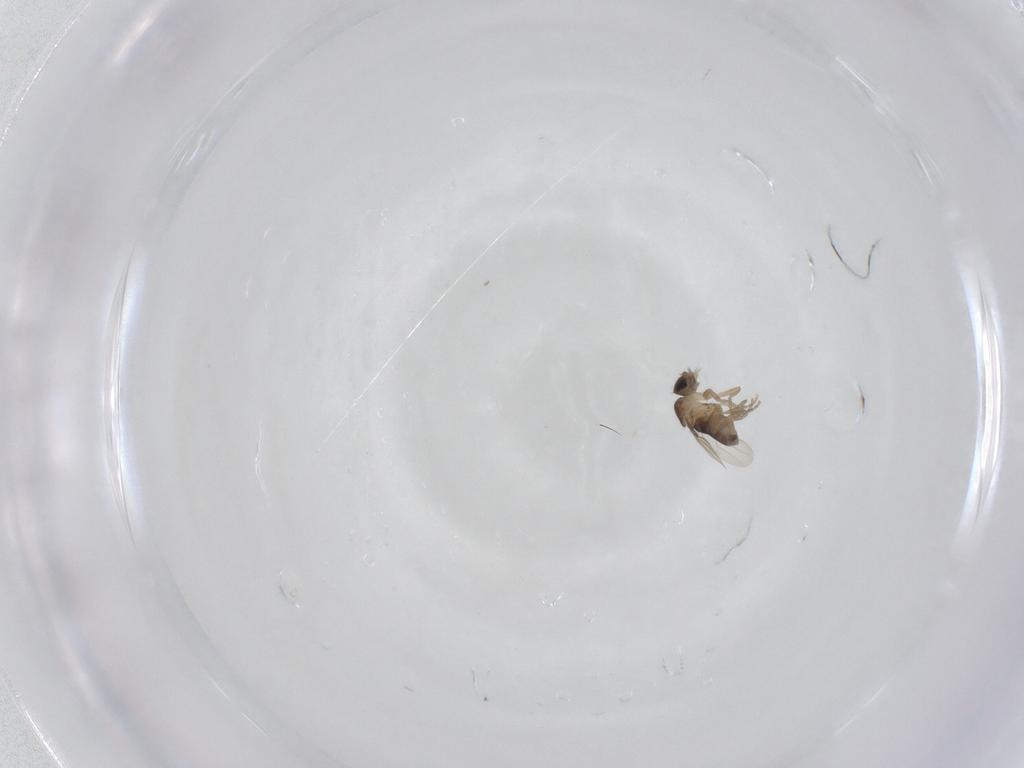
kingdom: Animalia
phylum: Arthropoda
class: Insecta
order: Diptera
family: Phoridae
